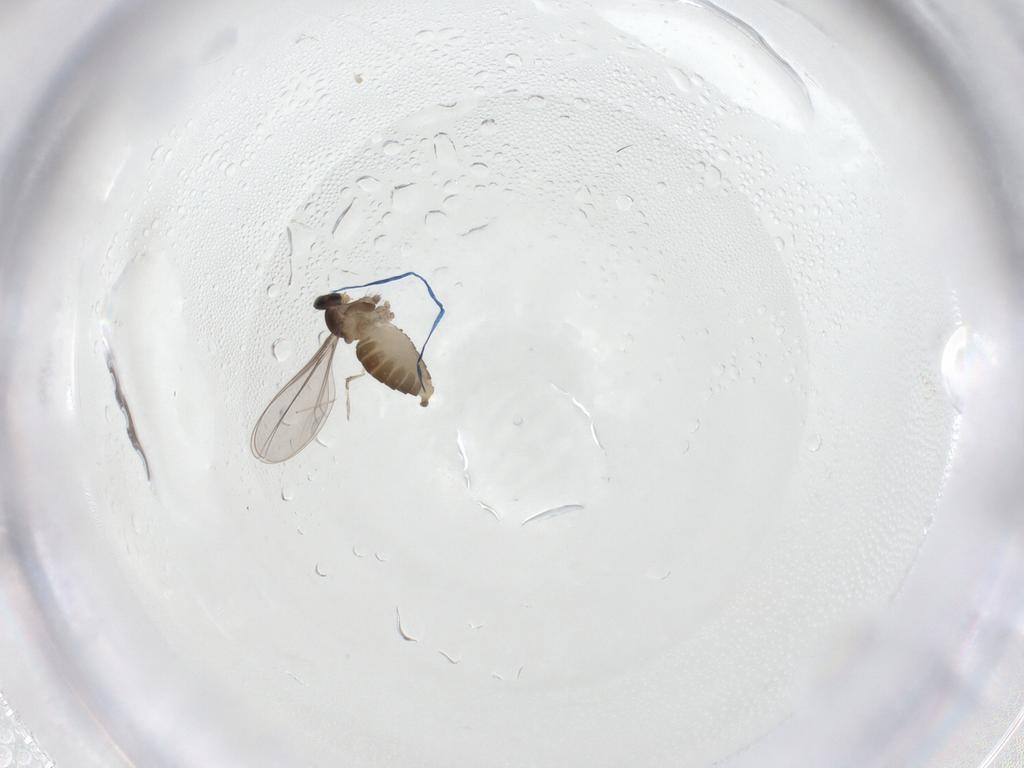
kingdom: Animalia
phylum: Arthropoda
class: Insecta
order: Diptera
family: Cecidomyiidae
